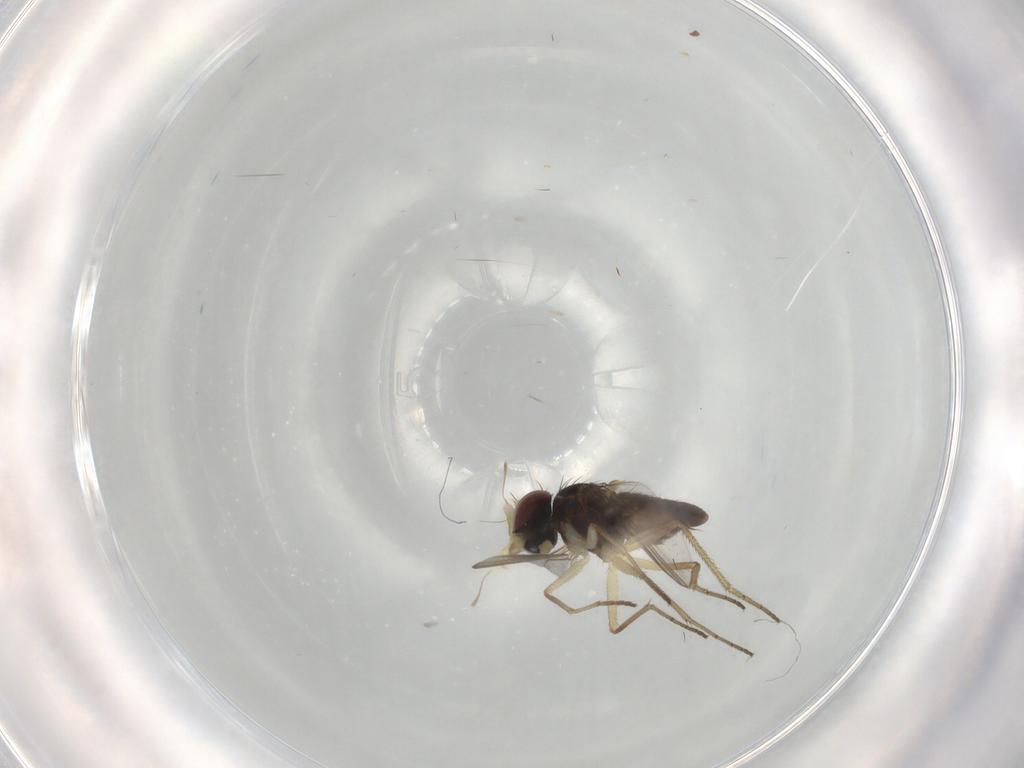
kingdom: Animalia
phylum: Arthropoda
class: Insecta
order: Diptera
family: Dolichopodidae
